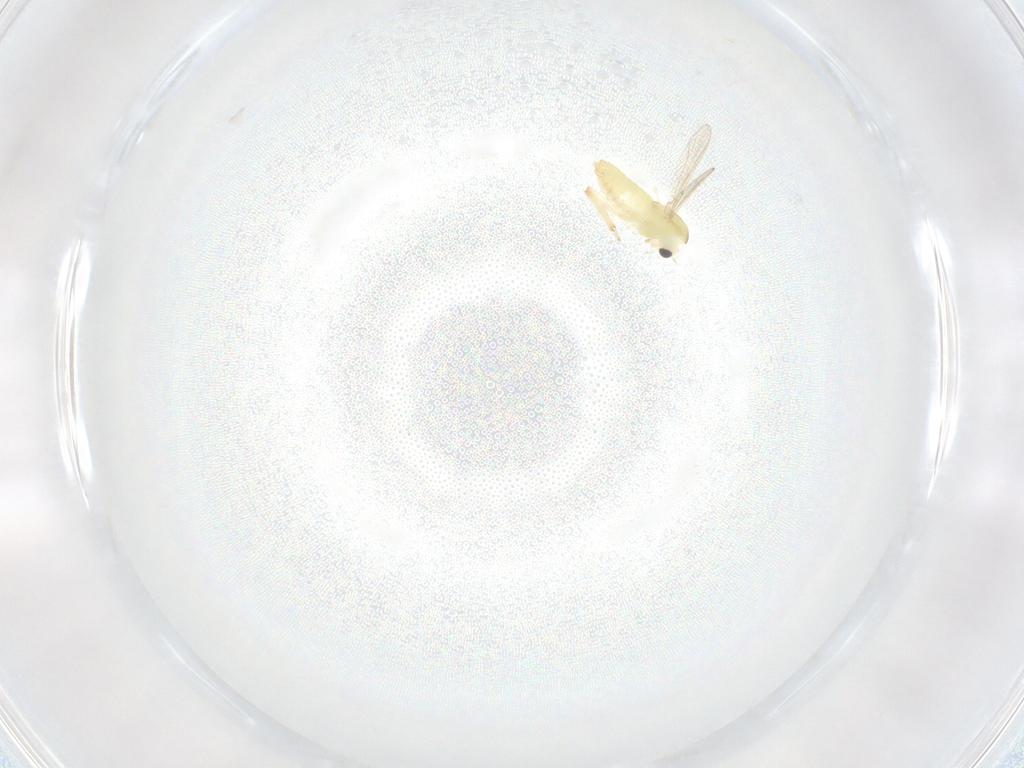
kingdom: Animalia
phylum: Arthropoda
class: Insecta
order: Diptera
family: Chironomidae
